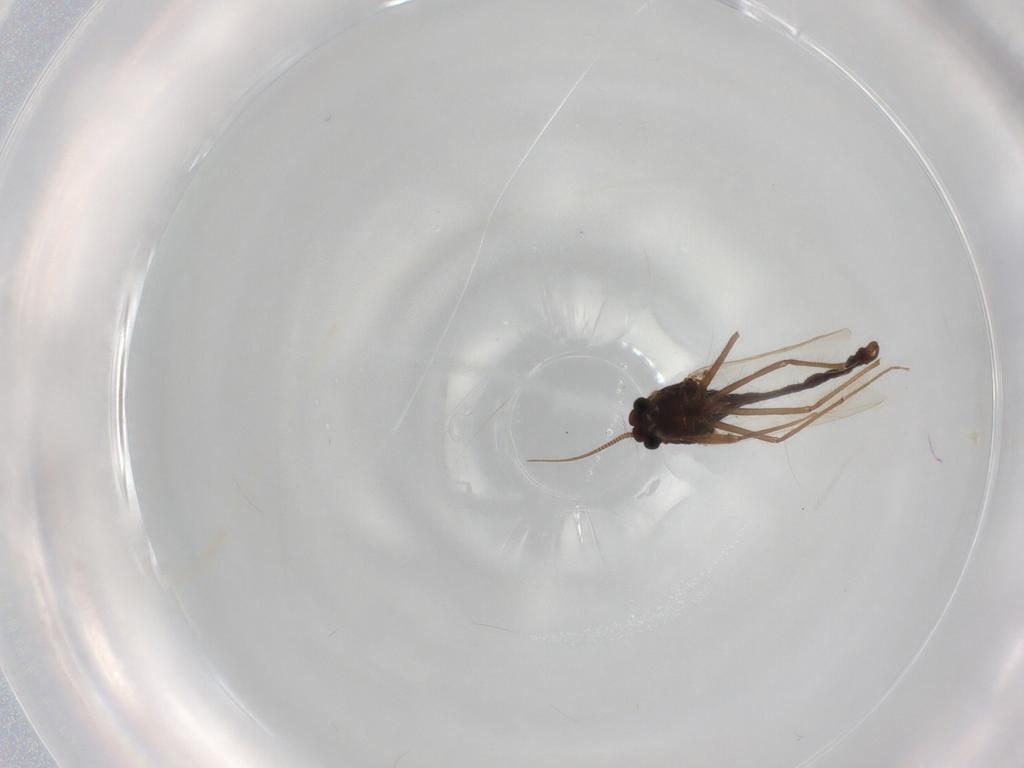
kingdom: Animalia
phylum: Arthropoda
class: Insecta
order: Diptera
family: Chironomidae
